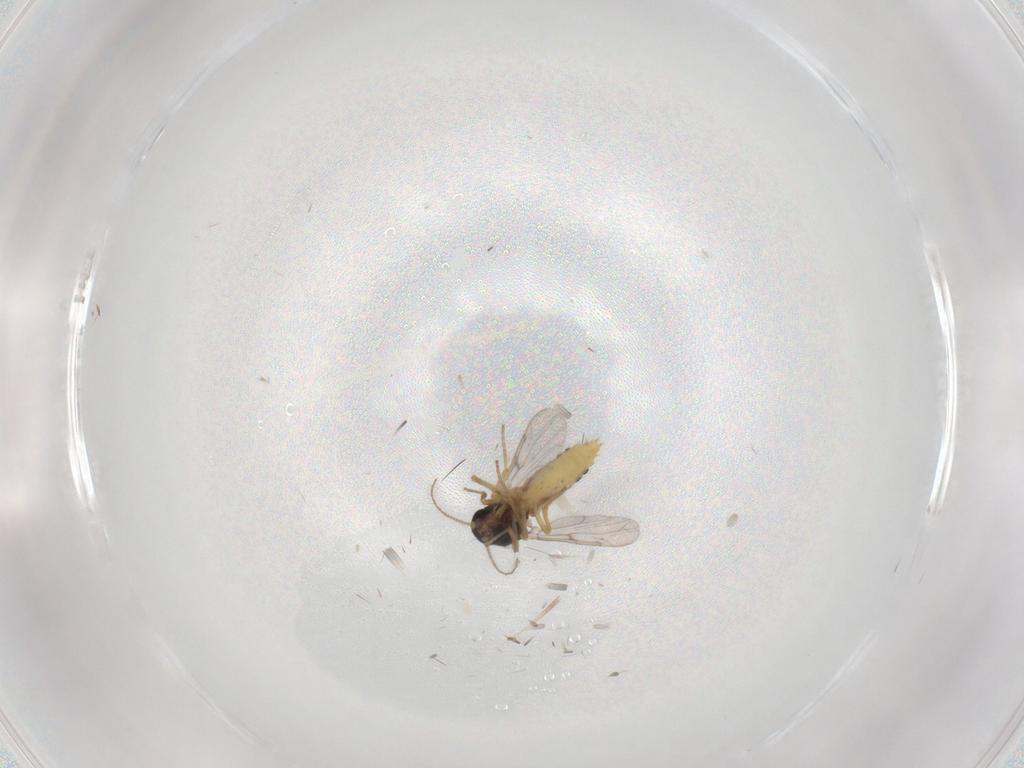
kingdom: Animalia
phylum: Arthropoda
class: Insecta
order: Diptera
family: Ceratopogonidae
